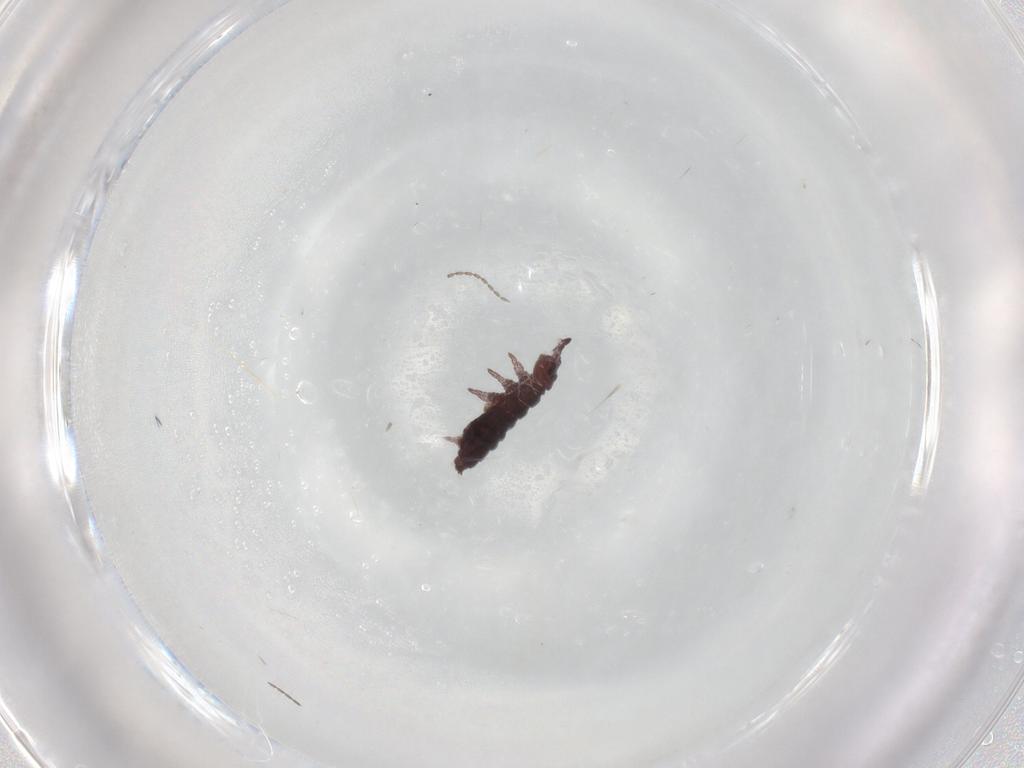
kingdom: Animalia
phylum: Arthropoda
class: Collembola
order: Poduromorpha
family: Hypogastruridae
